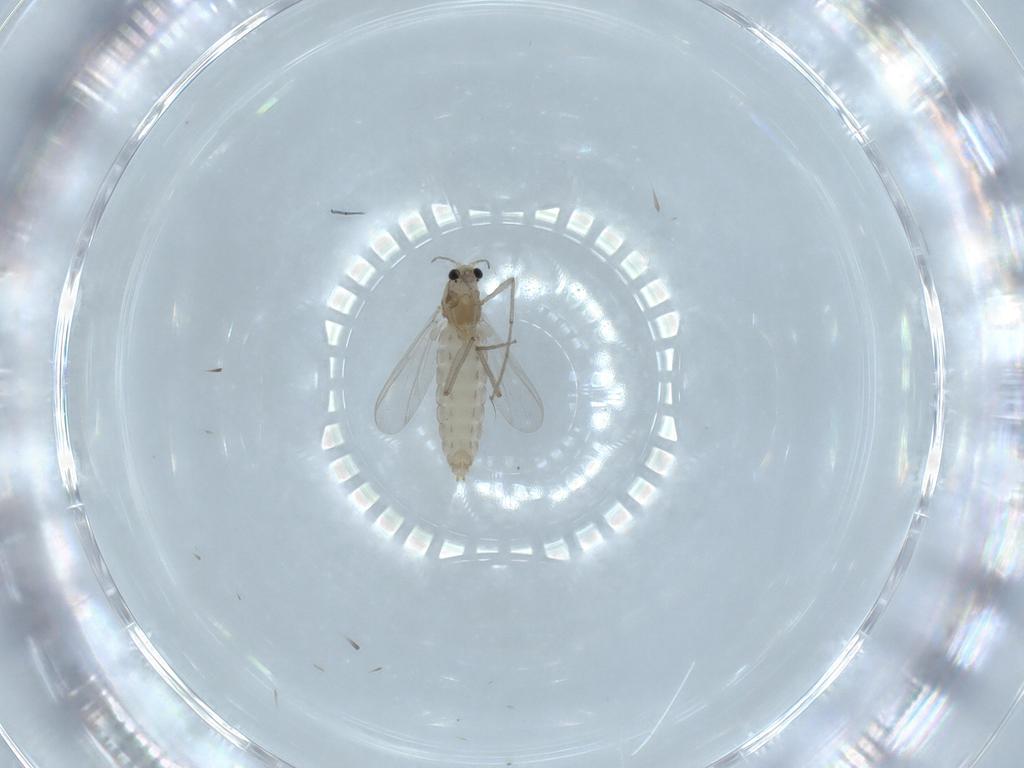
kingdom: Animalia
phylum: Arthropoda
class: Insecta
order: Diptera
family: Chironomidae
